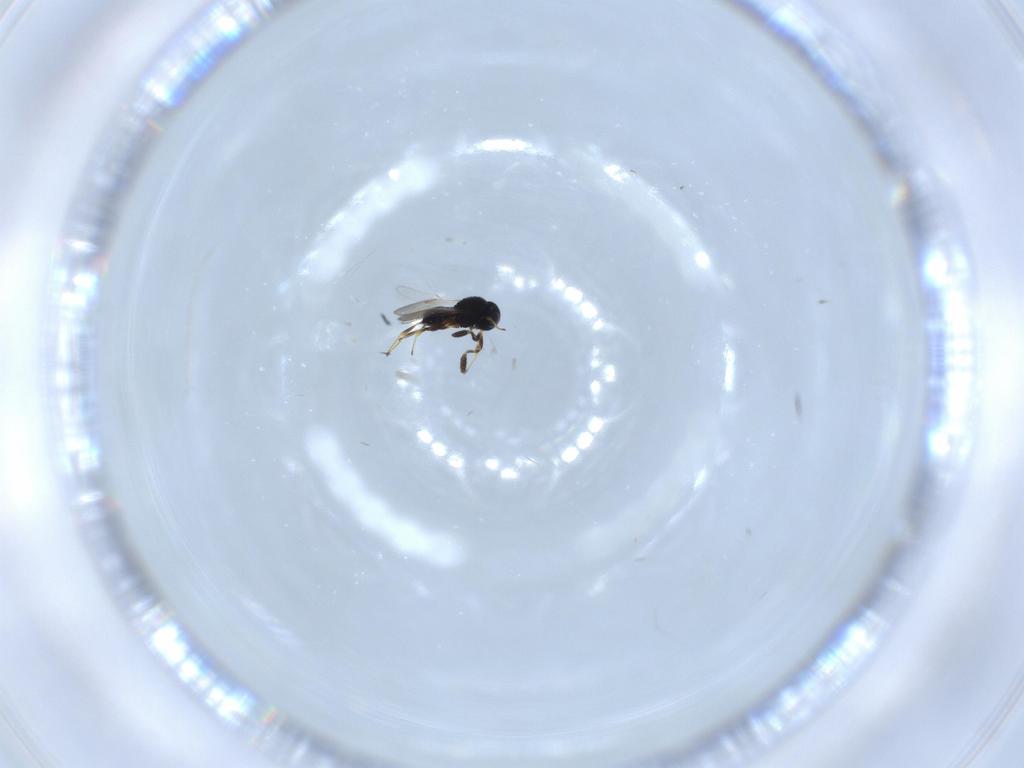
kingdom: Animalia
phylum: Arthropoda
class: Insecta
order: Hymenoptera
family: Scelionidae
